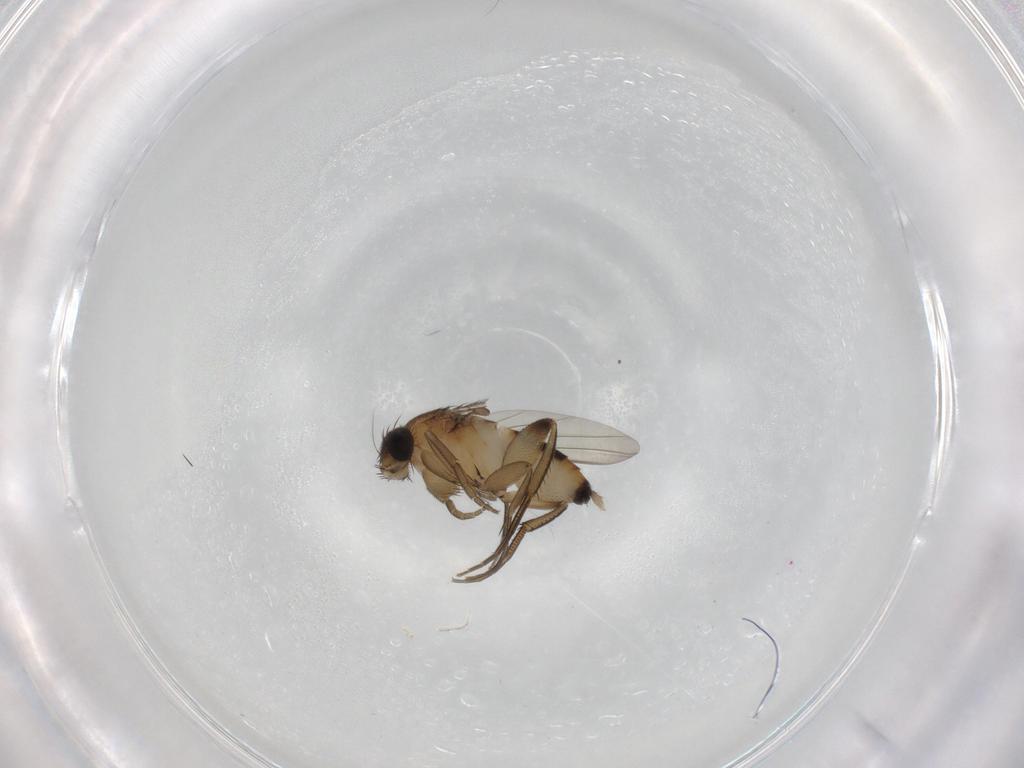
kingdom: Animalia
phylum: Arthropoda
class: Insecta
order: Diptera
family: Phoridae
